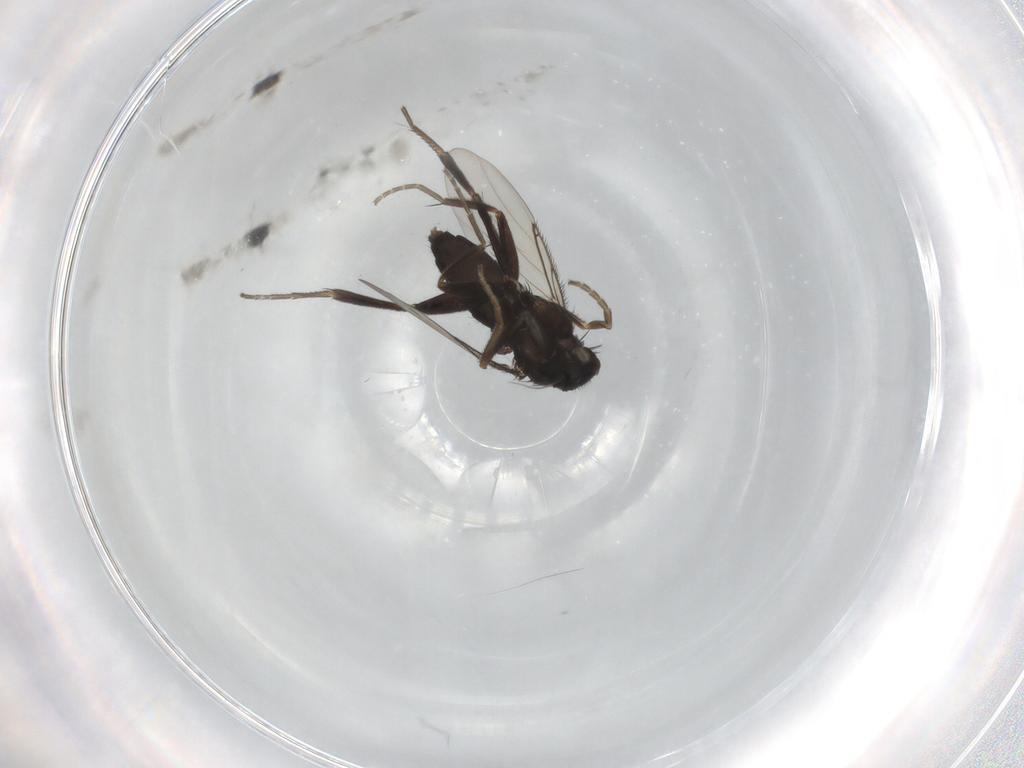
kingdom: Animalia
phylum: Arthropoda
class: Insecta
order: Diptera
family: Phoridae
